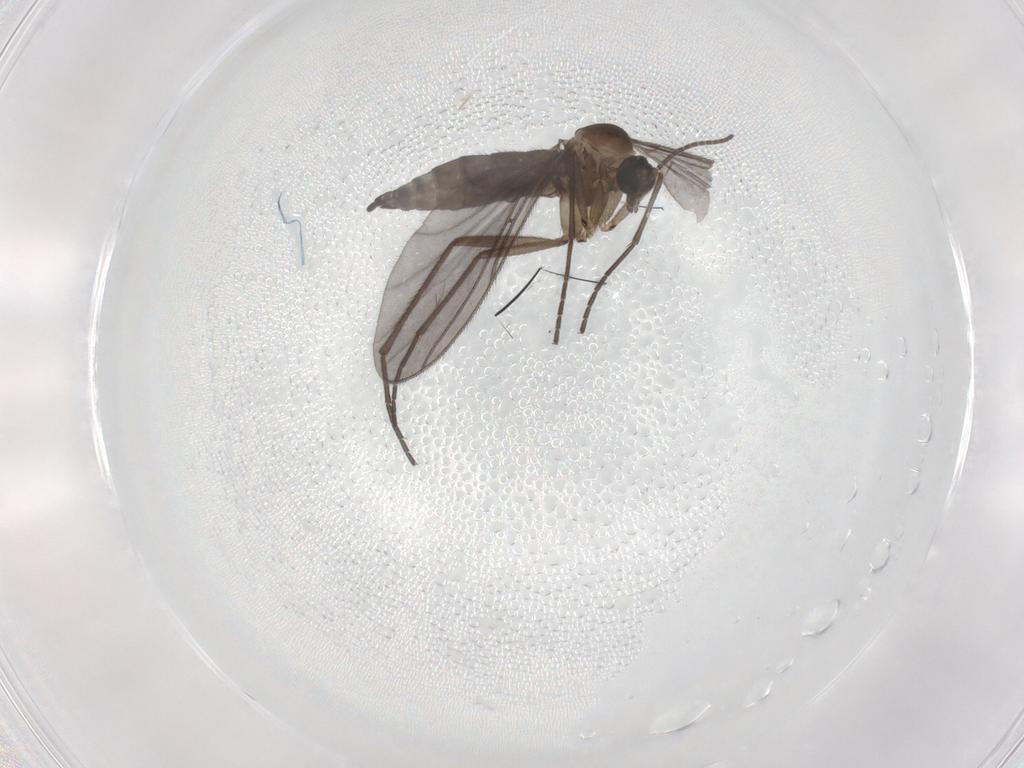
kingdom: Animalia
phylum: Arthropoda
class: Insecta
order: Diptera
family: Sciaridae
